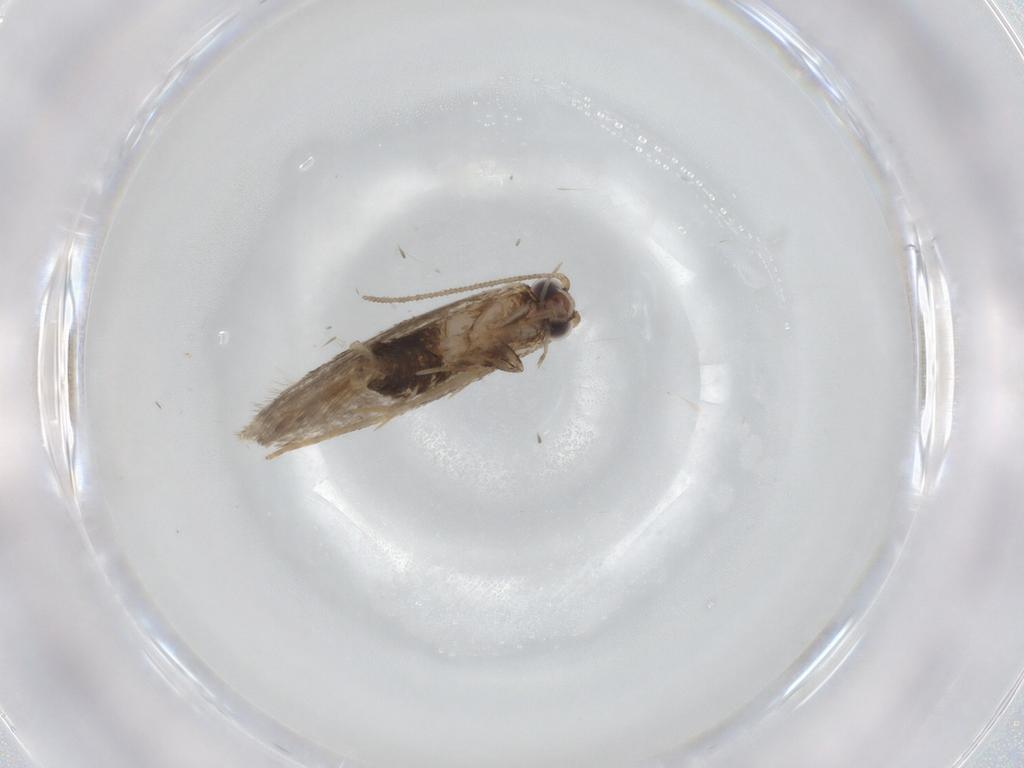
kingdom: Animalia
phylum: Arthropoda
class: Insecta
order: Lepidoptera
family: Tineidae
